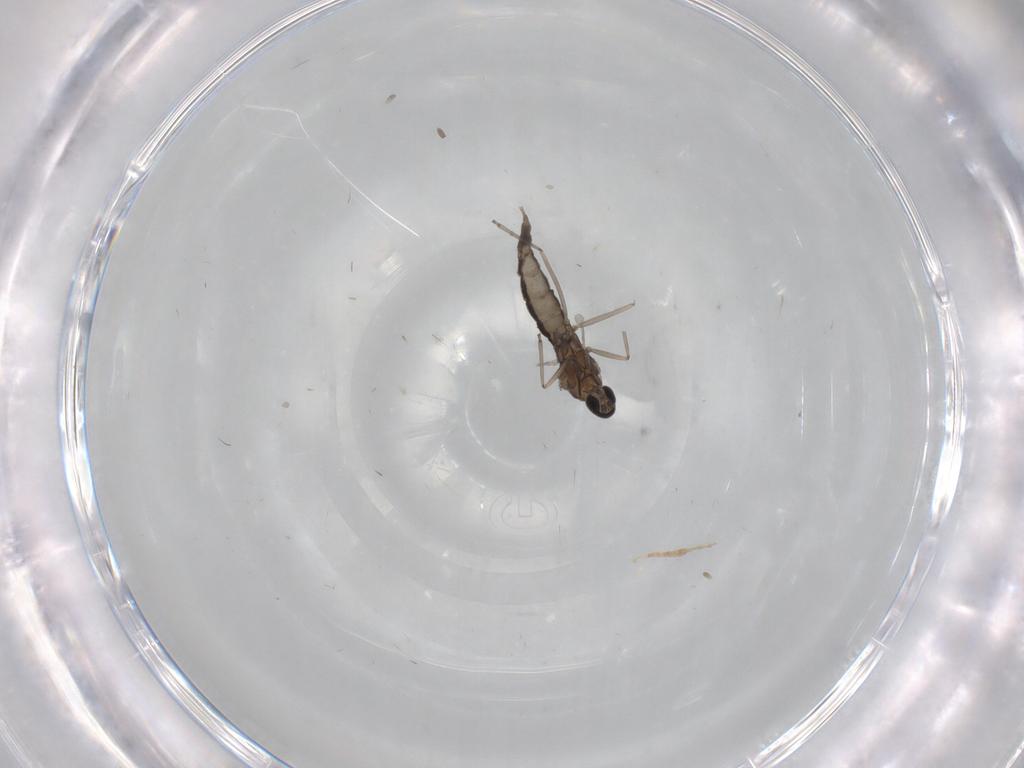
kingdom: Animalia
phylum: Arthropoda
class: Insecta
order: Diptera
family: Cecidomyiidae
